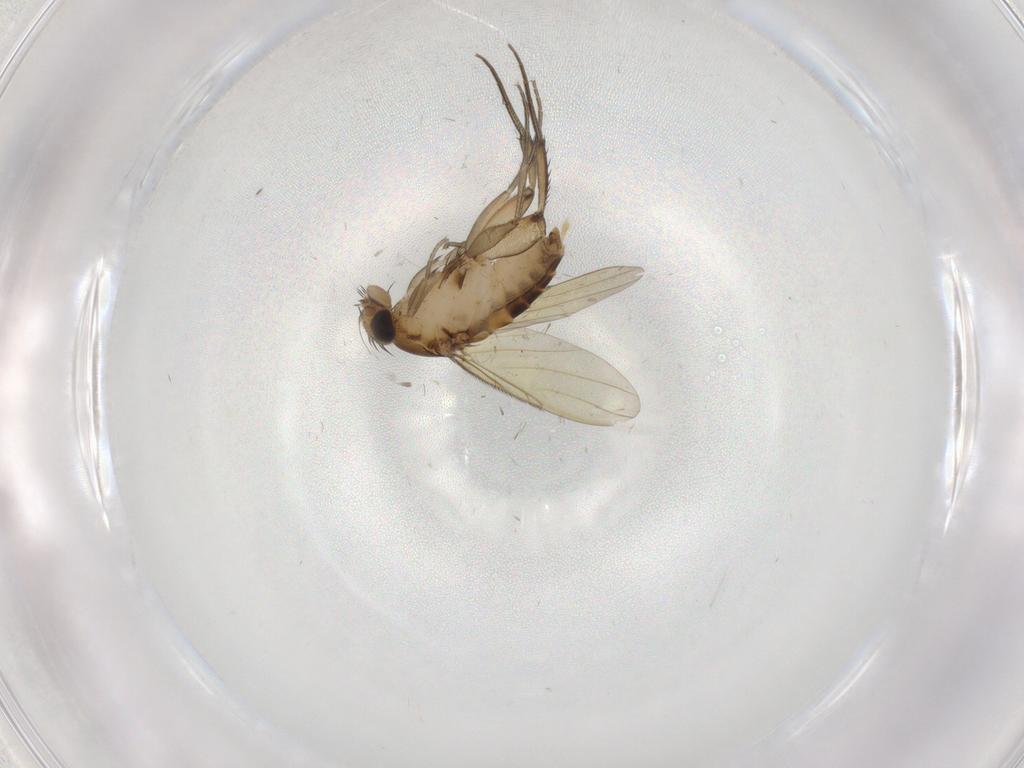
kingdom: Animalia
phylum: Arthropoda
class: Insecta
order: Diptera
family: Phoridae
